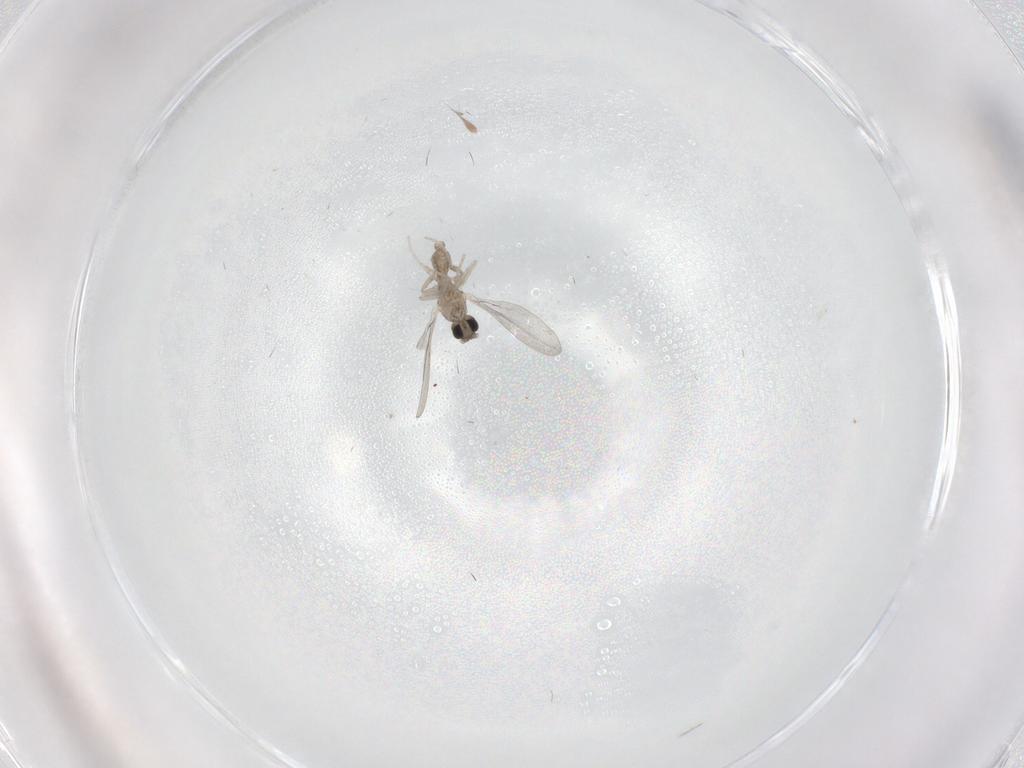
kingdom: Animalia
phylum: Arthropoda
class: Insecta
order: Diptera
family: Cecidomyiidae
